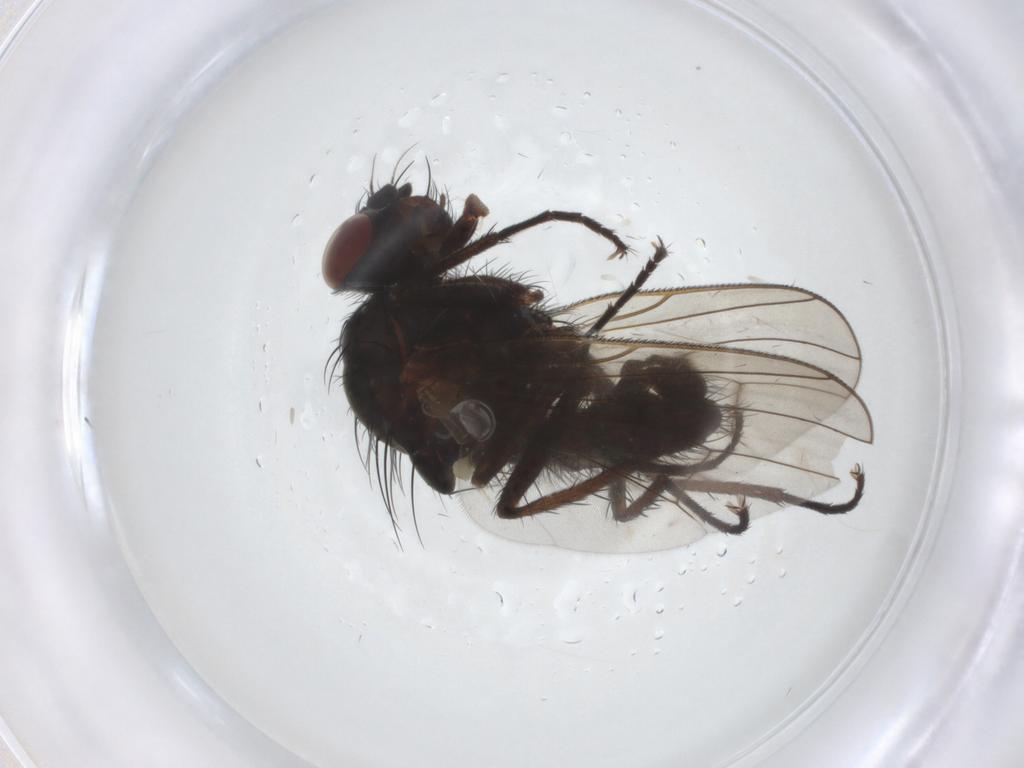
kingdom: Animalia
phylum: Arthropoda
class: Insecta
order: Diptera
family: Anthomyiidae
